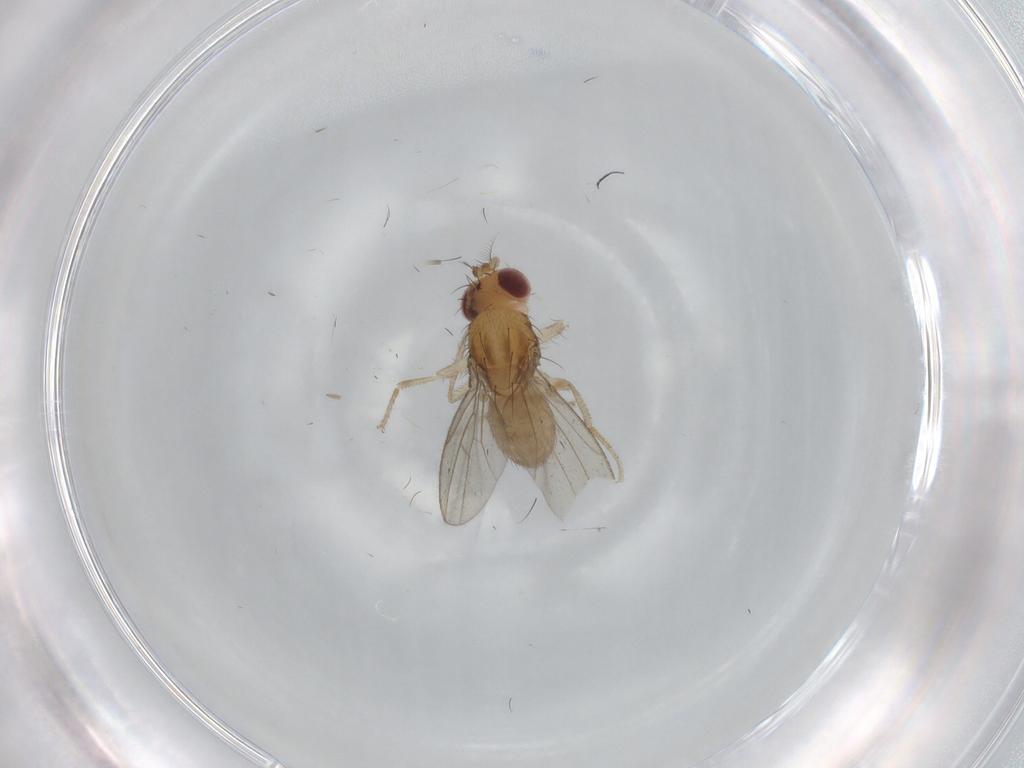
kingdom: Animalia
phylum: Arthropoda
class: Insecta
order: Diptera
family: Drosophilidae
